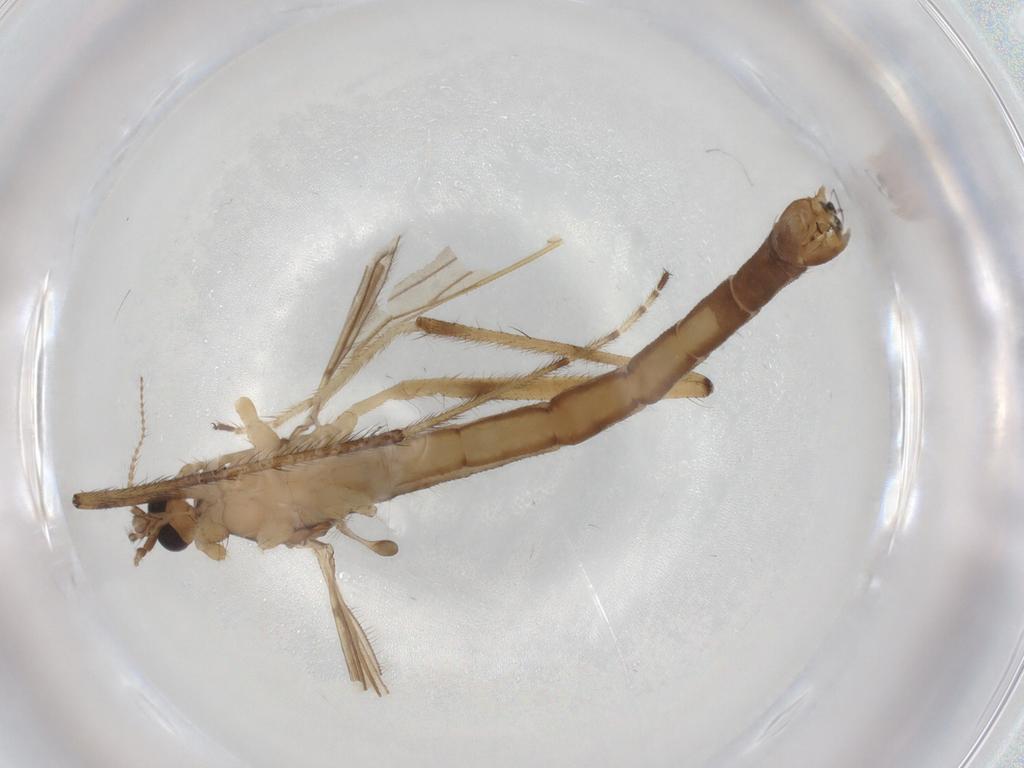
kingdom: Animalia
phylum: Arthropoda
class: Insecta
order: Diptera
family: Limoniidae
